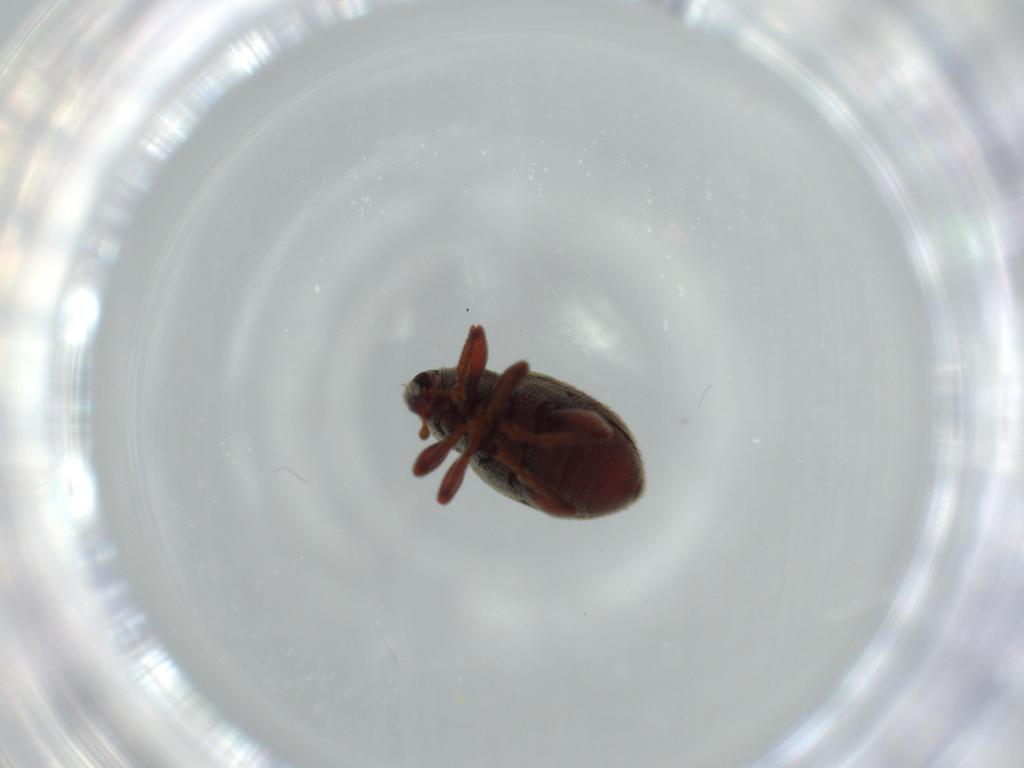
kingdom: Animalia
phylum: Arthropoda
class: Insecta
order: Coleoptera
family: Curculionidae
